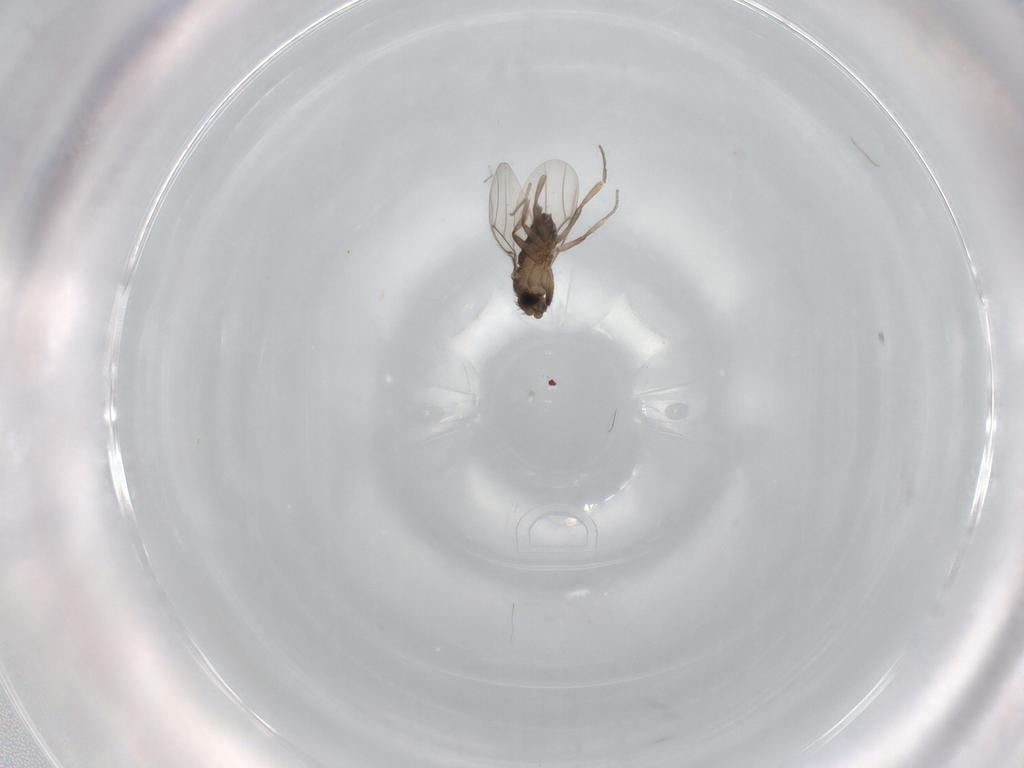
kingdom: Animalia
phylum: Arthropoda
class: Insecta
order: Diptera
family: Phoridae
